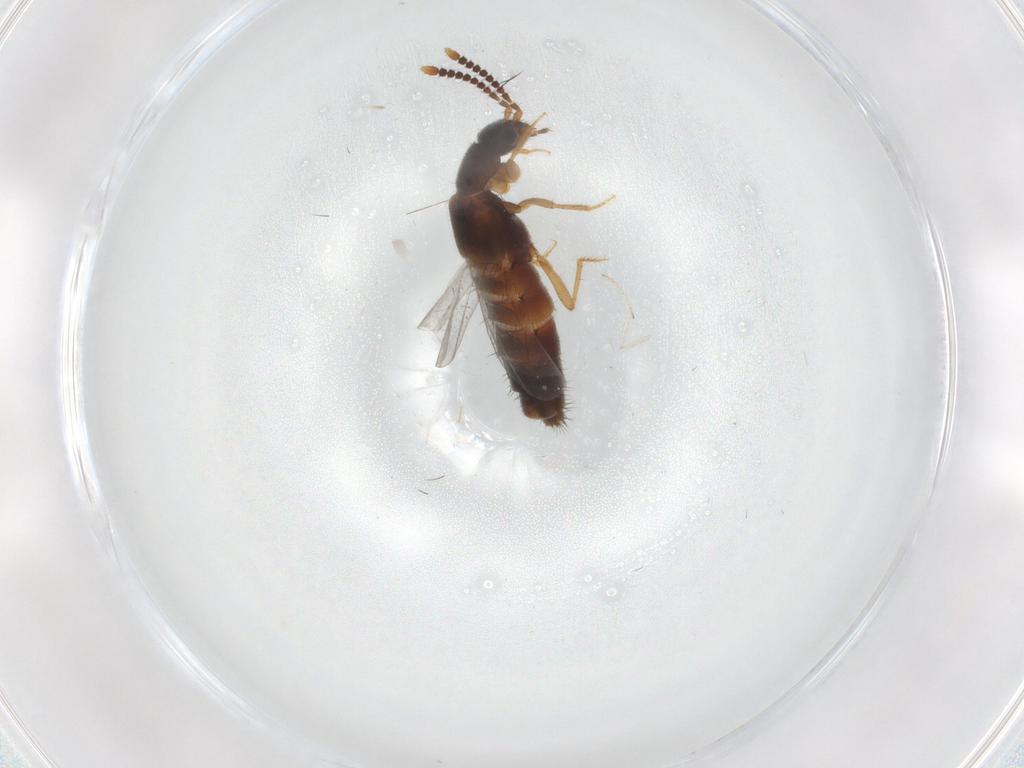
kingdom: Animalia
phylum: Arthropoda
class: Insecta
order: Coleoptera
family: Staphylinidae
